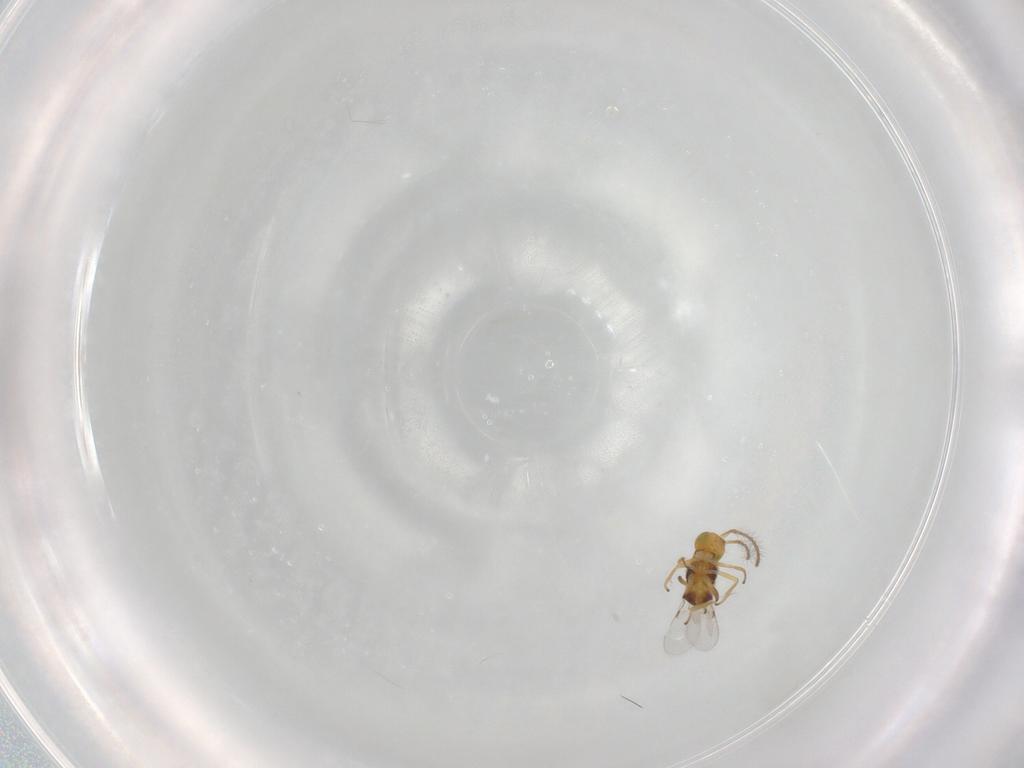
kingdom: Animalia
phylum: Arthropoda
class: Insecta
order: Hymenoptera
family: Encyrtidae
